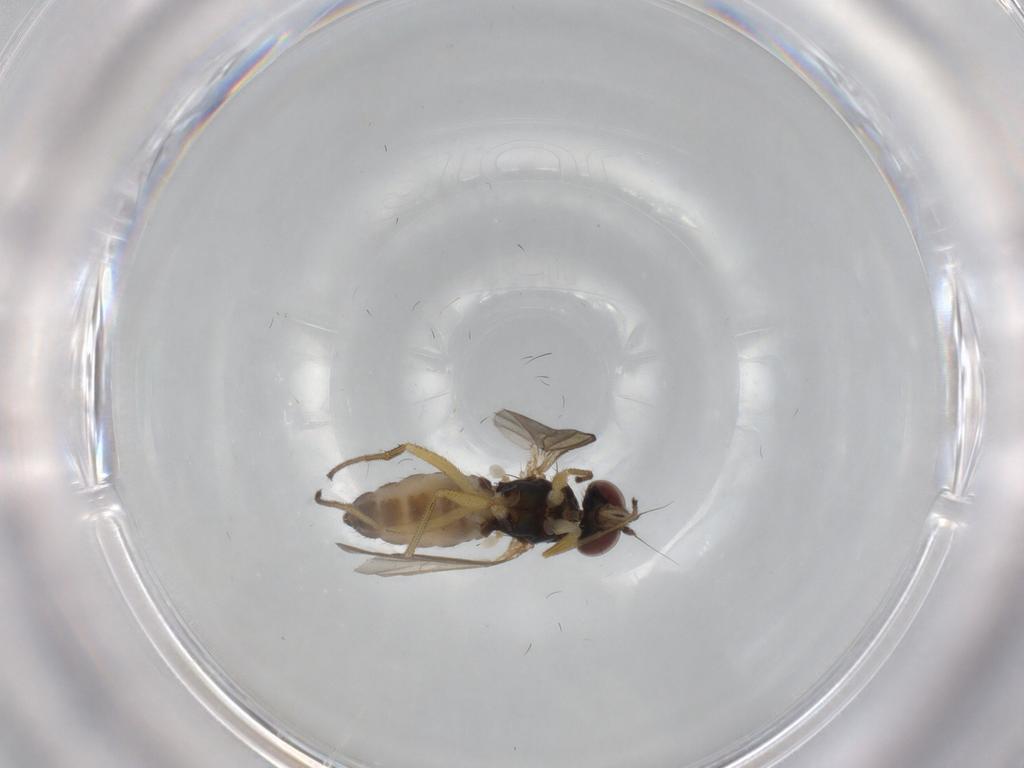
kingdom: Animalia
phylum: Arthropoda
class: Insecta
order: Diptera
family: Dolichopodidae
